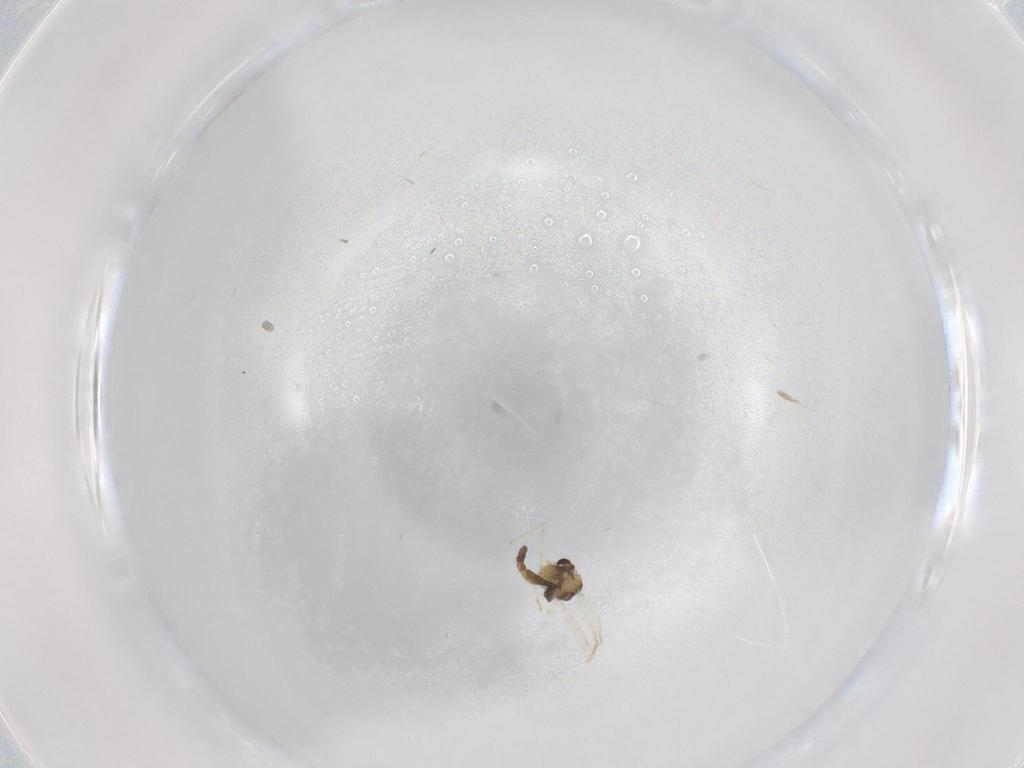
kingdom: Animalia
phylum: Arthropoda
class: Insecta
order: Diptera
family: Chironomidae
